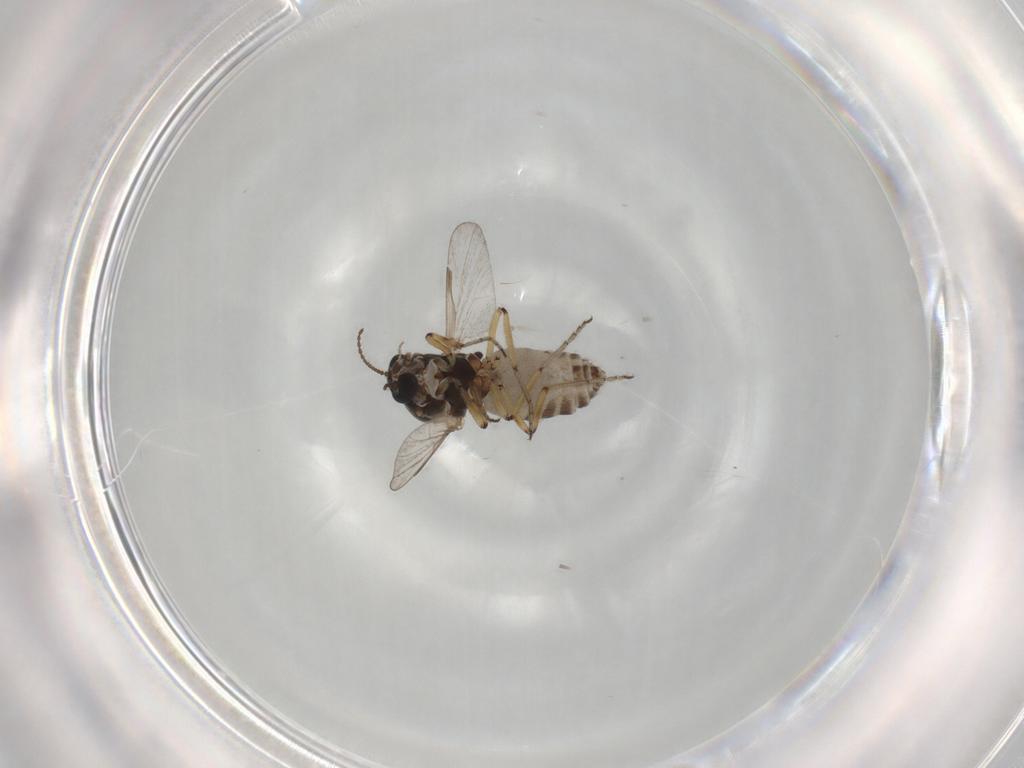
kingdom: Animalia
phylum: Arthropoda
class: Insecta
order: Diptera
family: Ceratopogonidae
